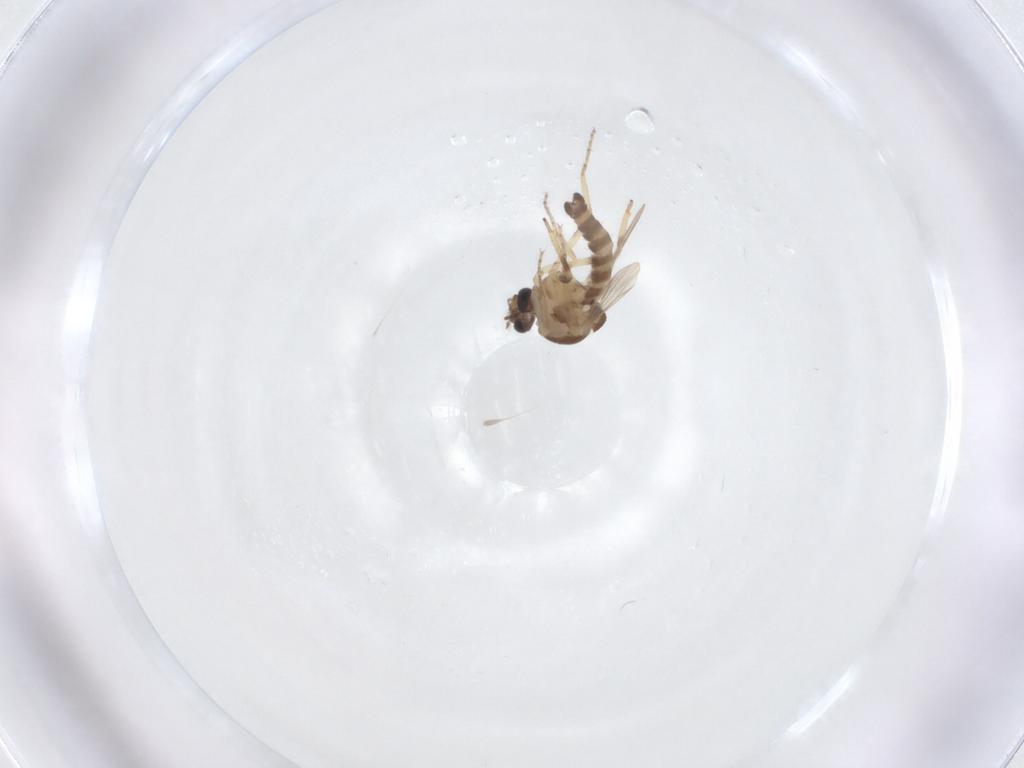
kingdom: Animalia
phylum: Arthropoda
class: Insecta
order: Diptera
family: Ceratopogonidae
